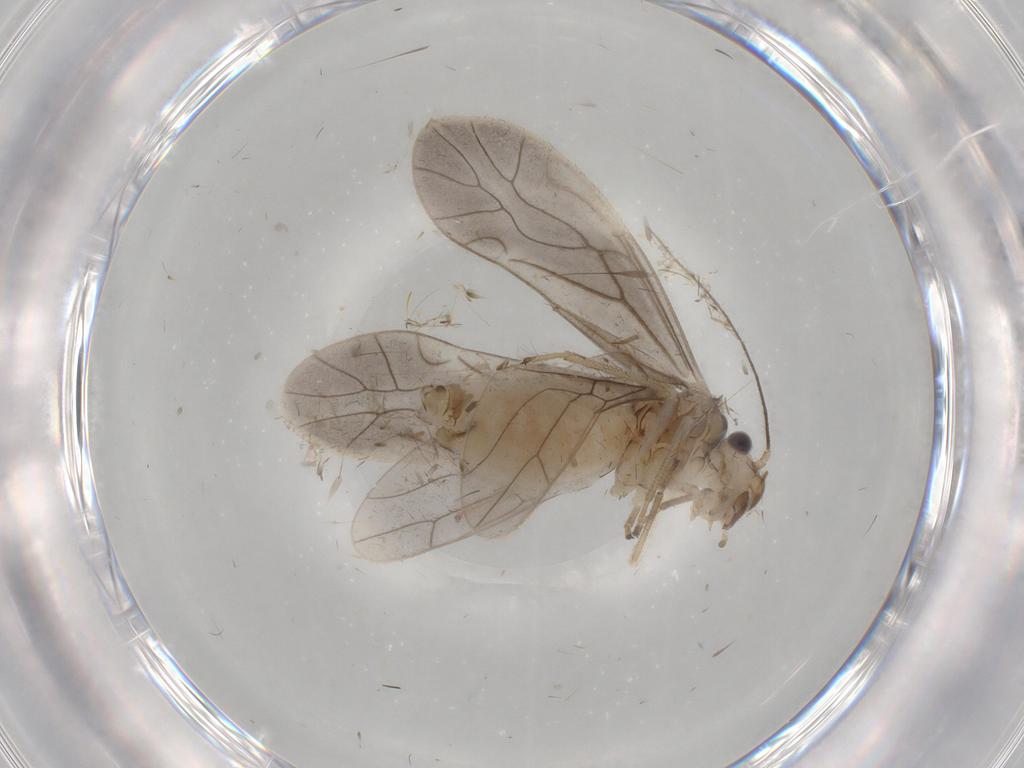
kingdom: Animalia
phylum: Arthropoda
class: Insecta
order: Psocodea
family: Caeciliusidae
